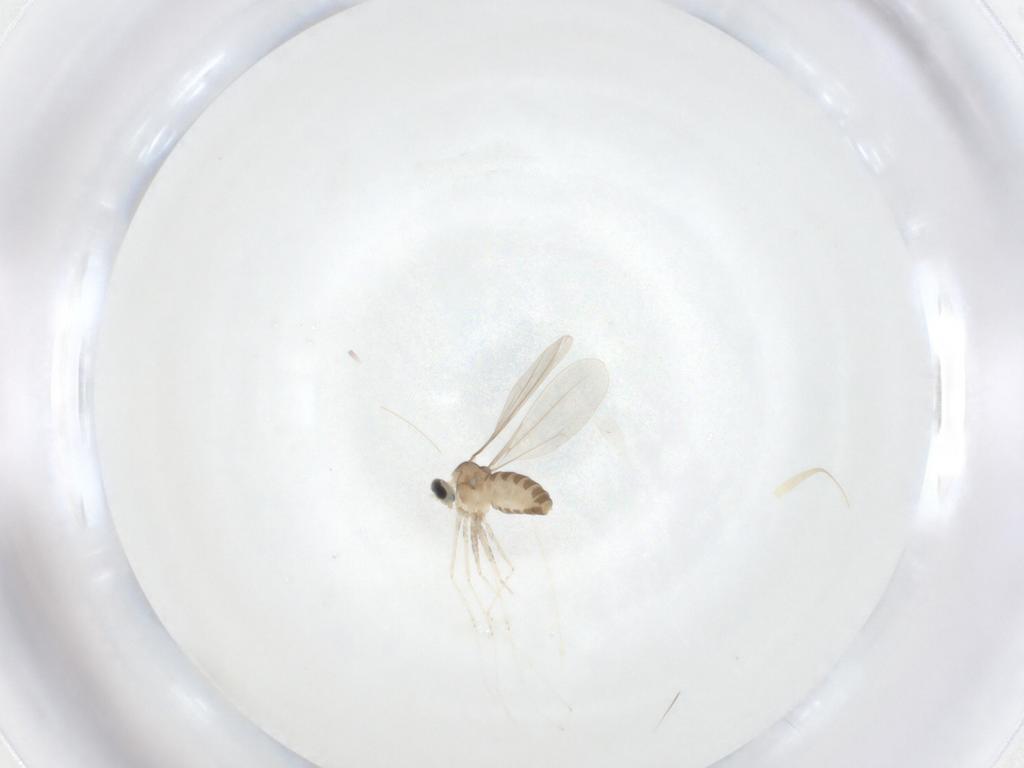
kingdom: Animalia
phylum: Arthropoda
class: Insecta
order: Diptera
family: Cecidomyiidae
